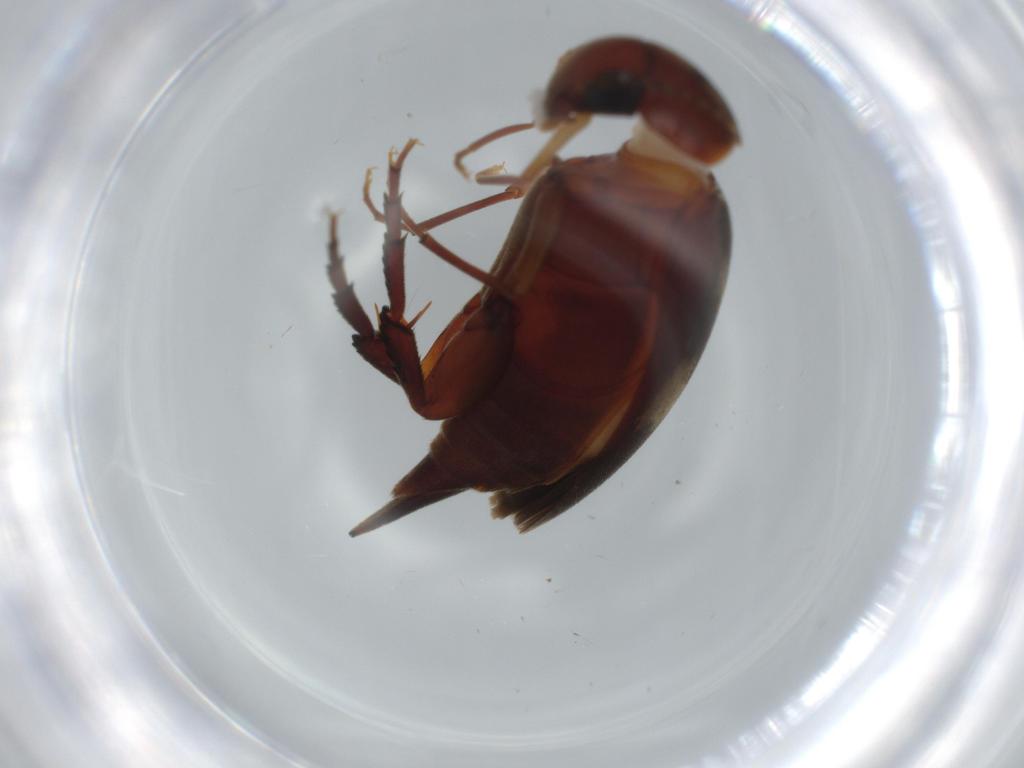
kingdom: Animalia
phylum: Arthropoda
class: Insecta
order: Coleoptera
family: Mordellidae
